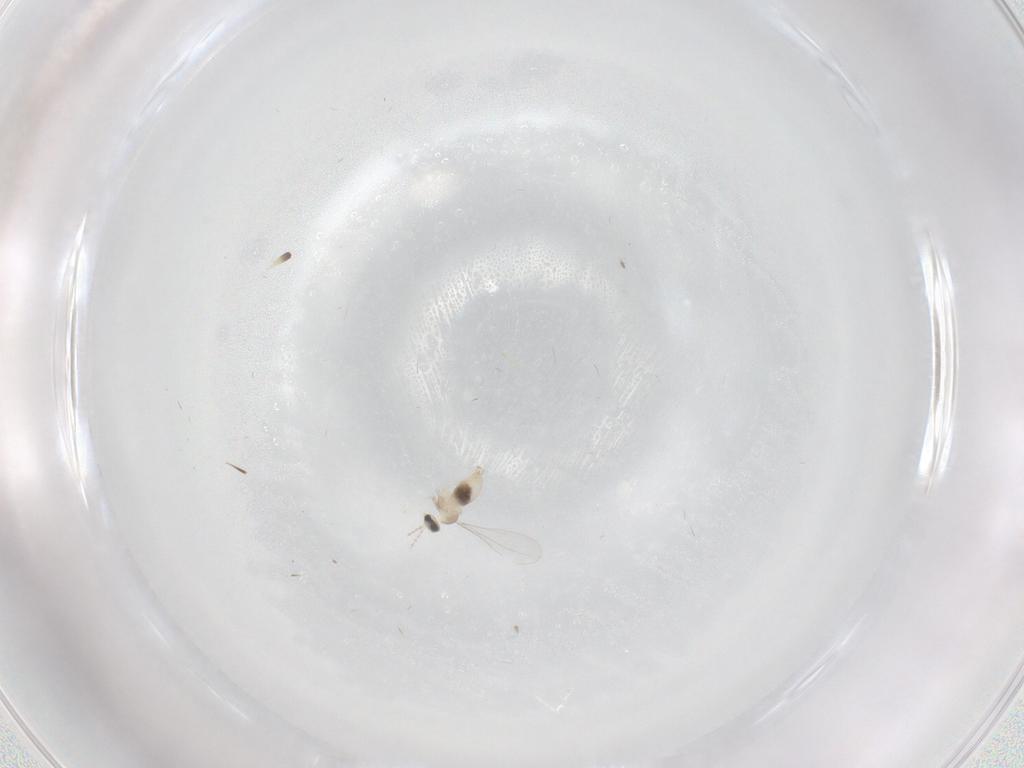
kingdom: Animalia
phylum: Arthropoda
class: Insecta
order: Diptera
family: Cecidomyiidae
